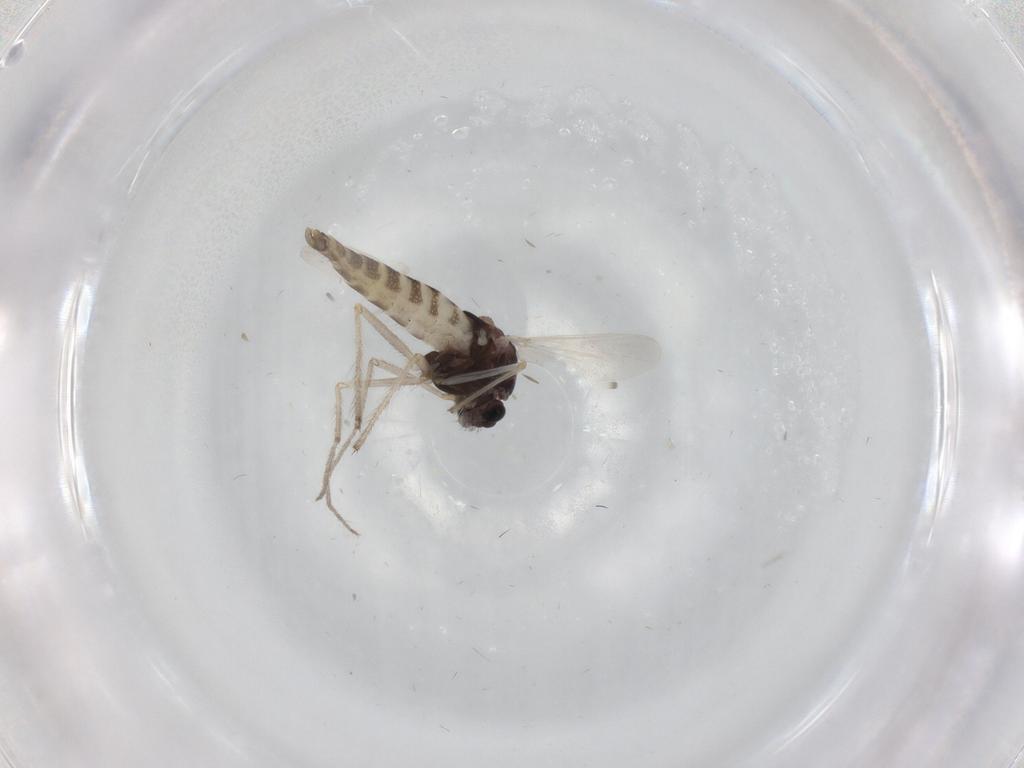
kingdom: Animalia
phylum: Arthropoda
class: Insecta
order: Diptera
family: Chironomidae
